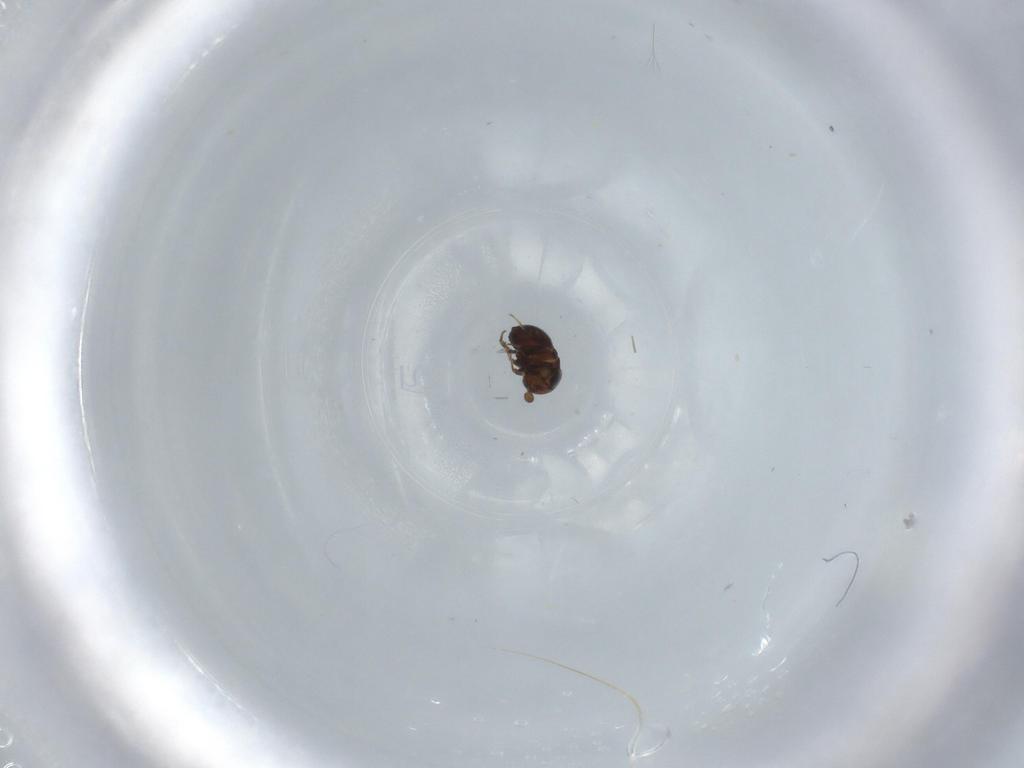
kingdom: Animalia
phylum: Arthropoda
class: Insecta
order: Hymenoptera
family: Scelionidae
